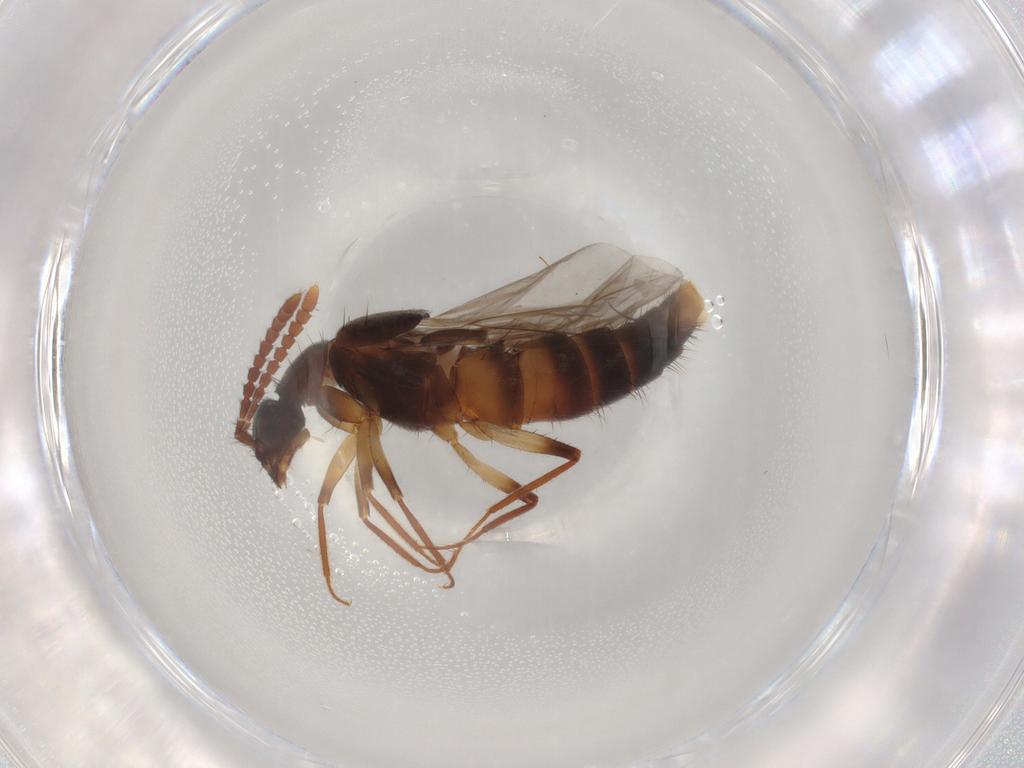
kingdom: Animalia
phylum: Arthropoda
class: Insecta
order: Coleoptera
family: Staphylinidae
